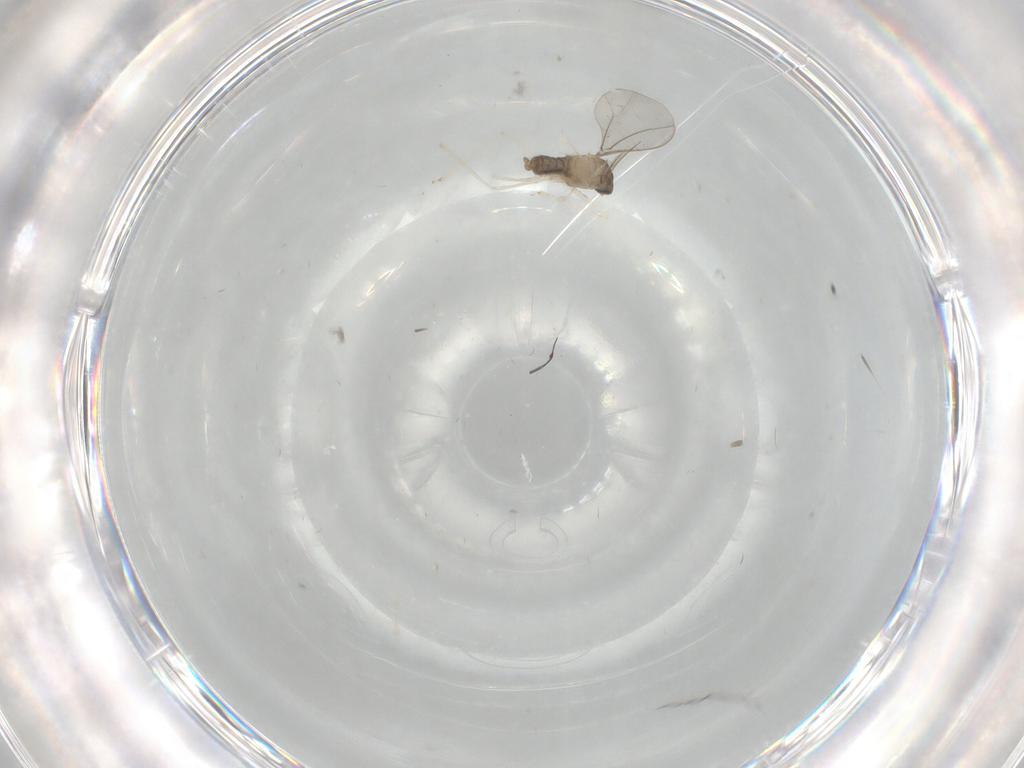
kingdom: Animalia
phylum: Arthropoda
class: Insecta
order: Diptera
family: Cecidomyiidae
